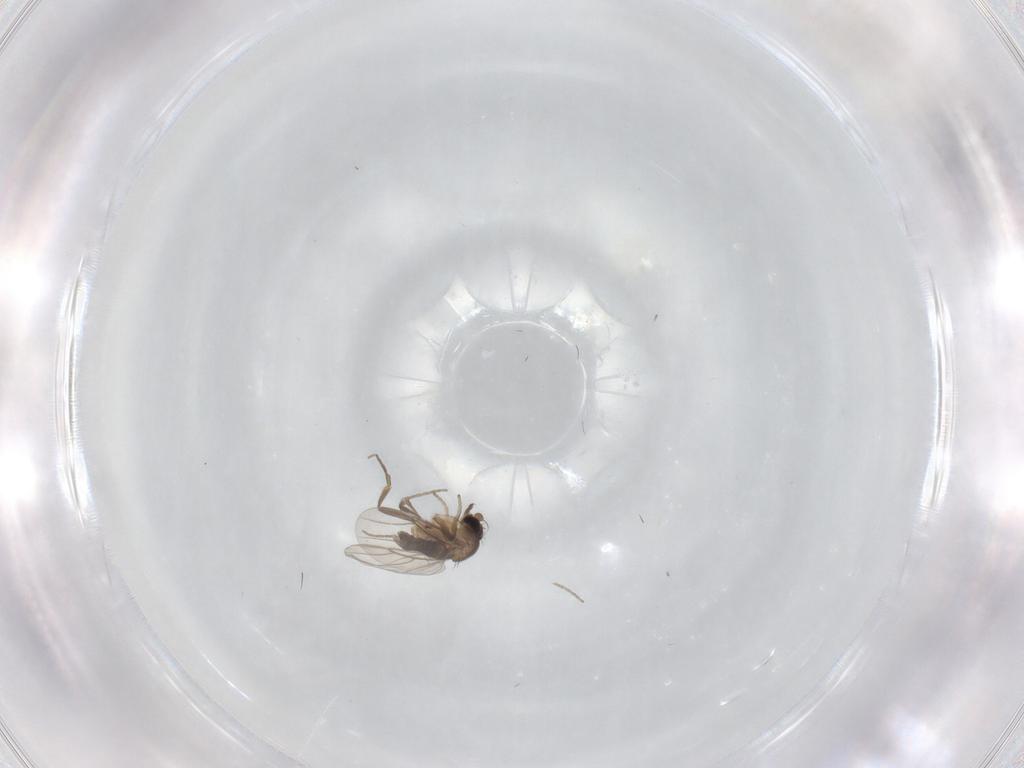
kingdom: Animalia
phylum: Arthropoda
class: Insecta
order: Diptera
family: Phoridae
